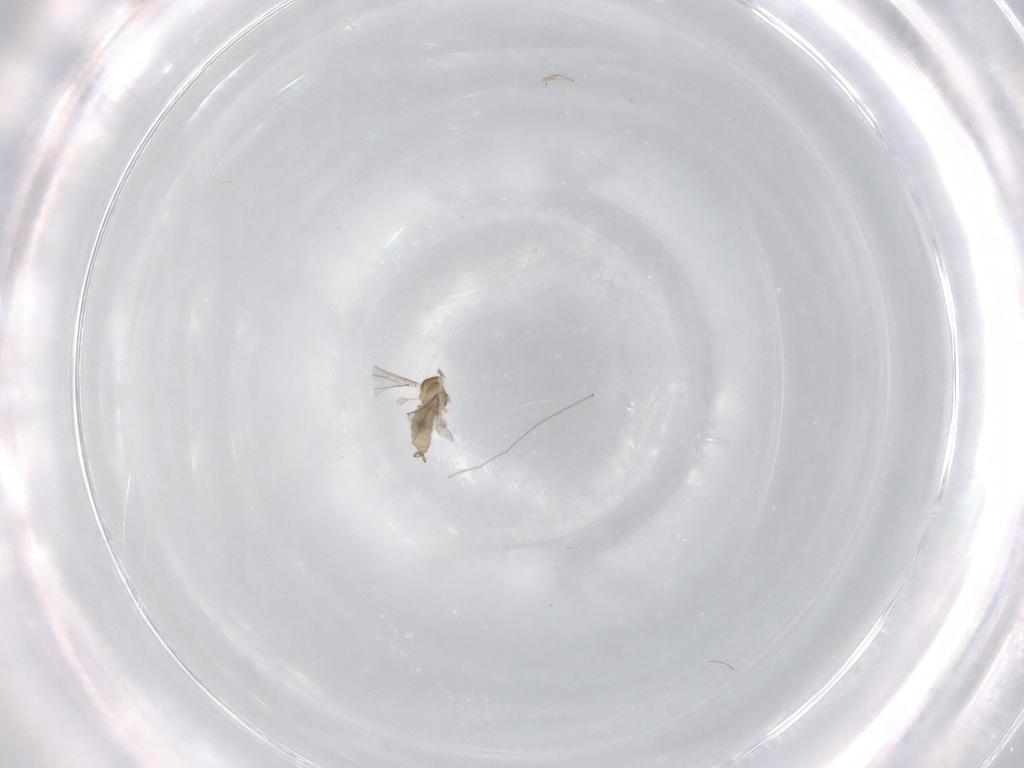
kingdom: Animalia
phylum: Arthropoda
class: Insecta
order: Diptera
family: Cecidomyiidae
